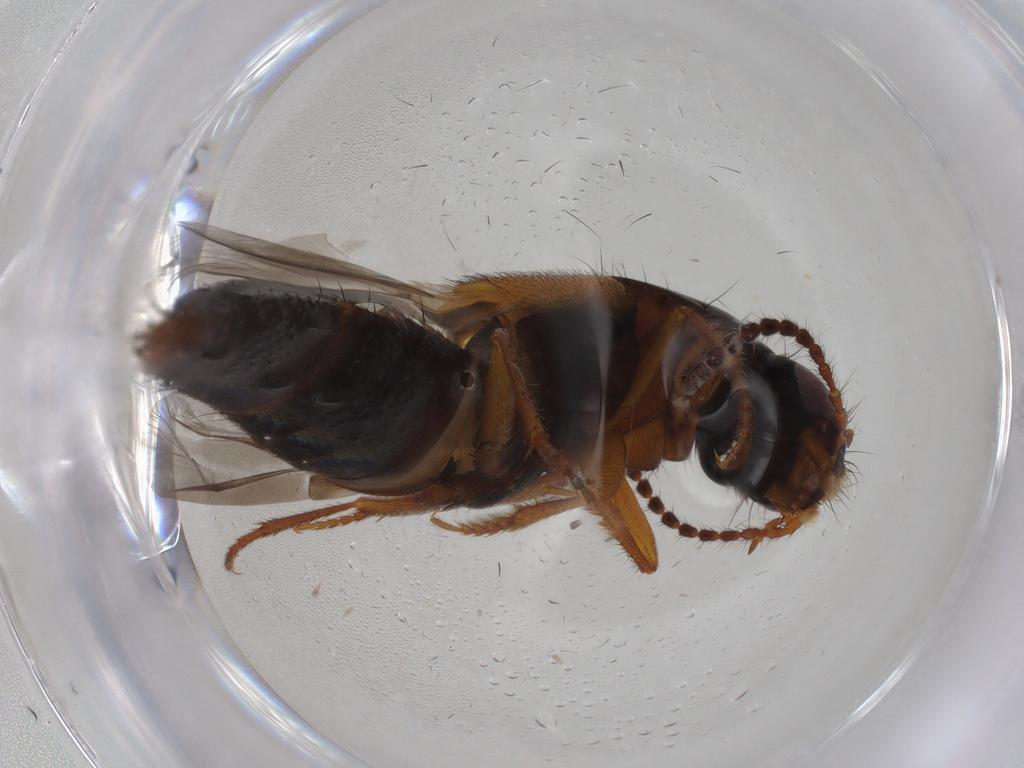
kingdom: Animalia
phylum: Arthropoda
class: Insecta
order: Coleoptera
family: Staphylinidae
